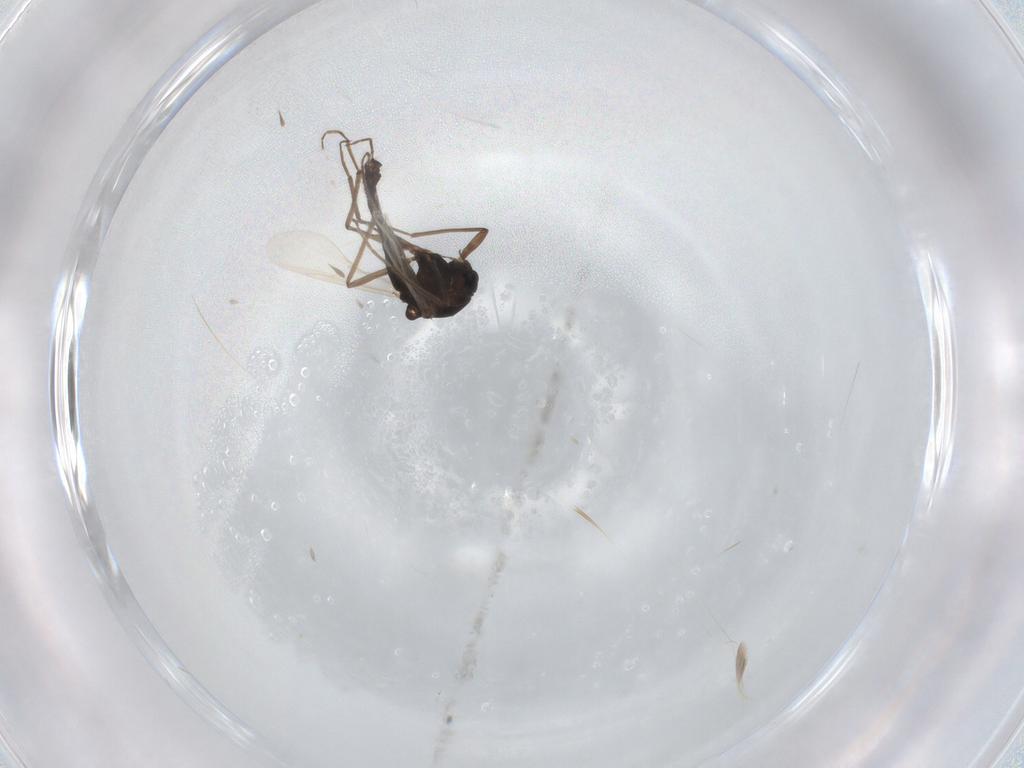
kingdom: Animalia
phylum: Arthropoda
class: Insecta
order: Diptera
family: Chironomidae
